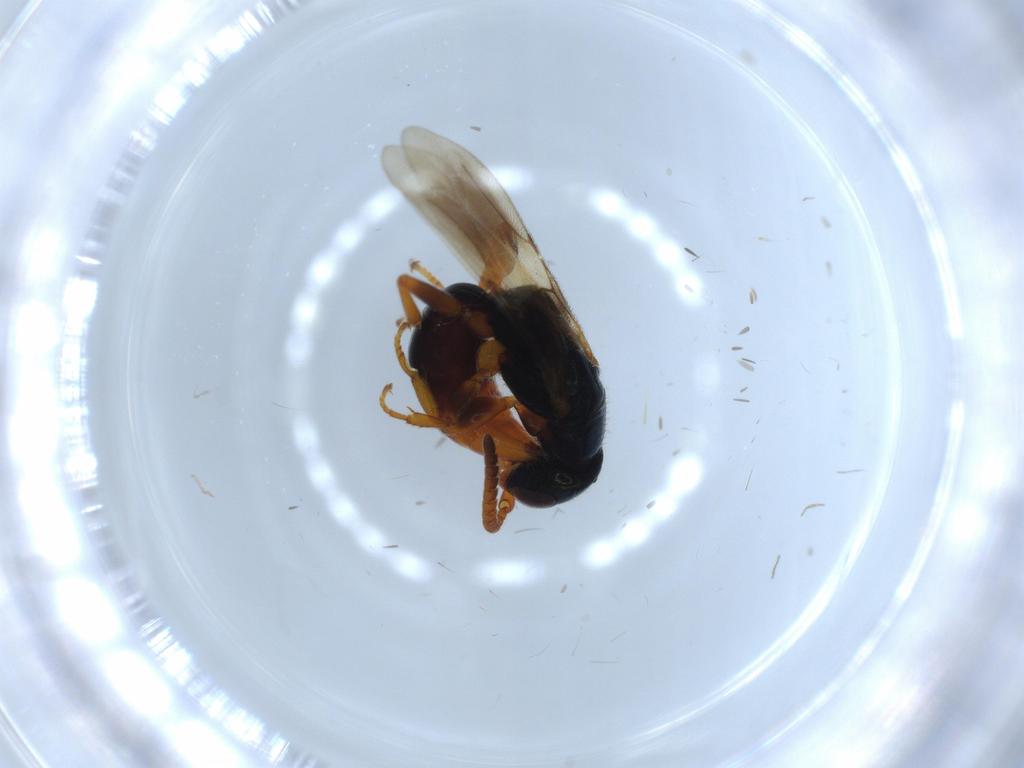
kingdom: Animalia
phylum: Arthropoda
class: Insecta
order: Hymenoptera
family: Bethylidae
